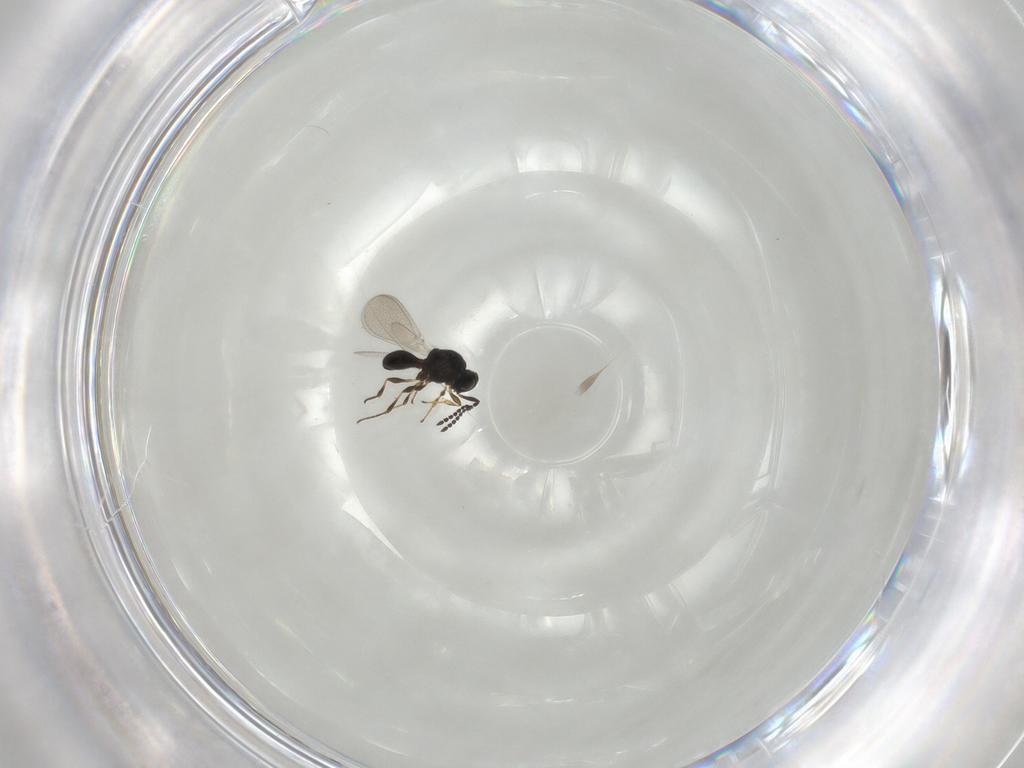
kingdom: Animalia
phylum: Arthropoda
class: Insecta
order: Hymenoptera
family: Platygastridae
